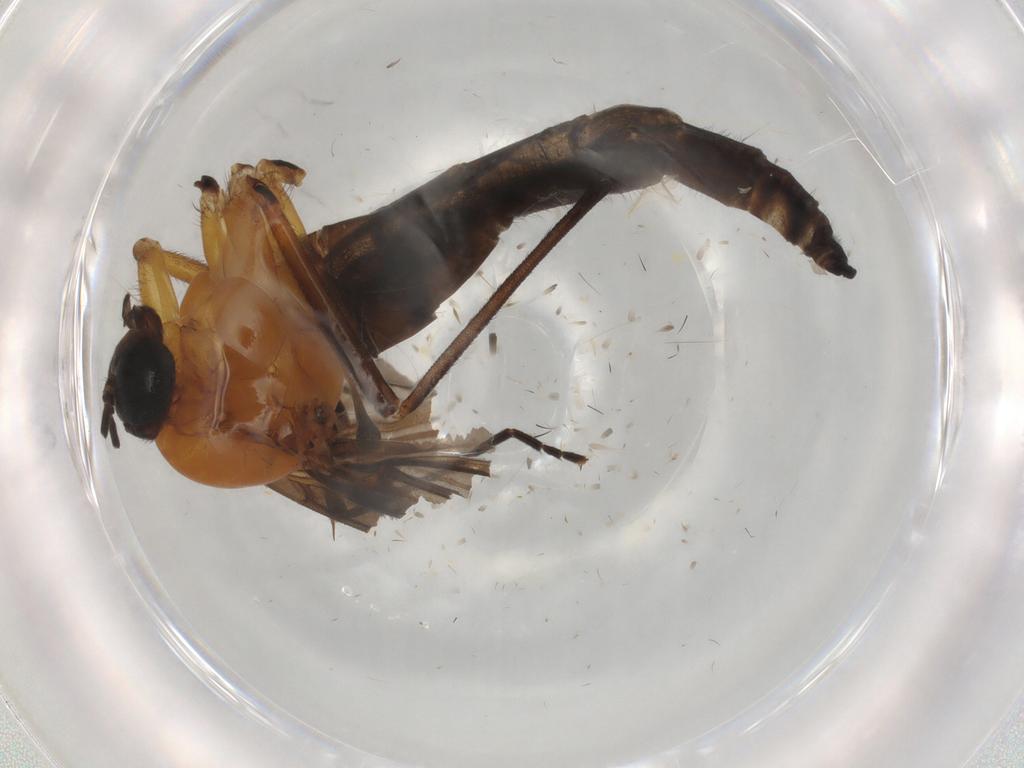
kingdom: Animalia
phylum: Arthropoda
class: Insecta
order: Diptera
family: Sciaridae
